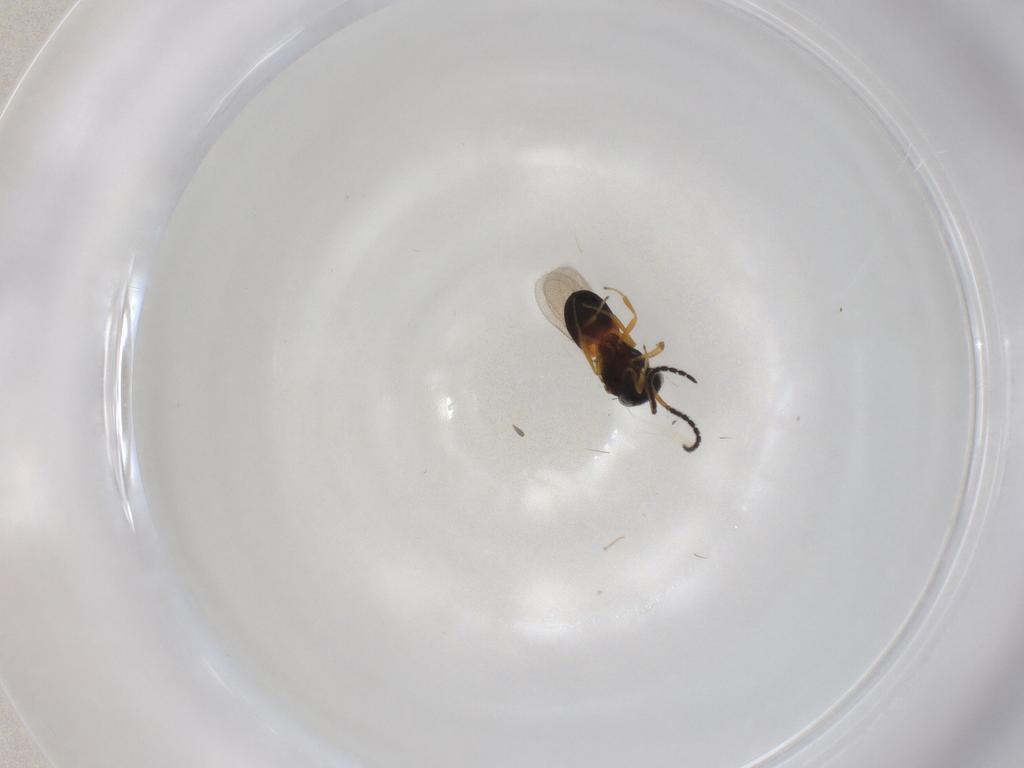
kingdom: Animalia
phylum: Arthropoda
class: Insecta
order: Hymenoptera
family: Scelionidae
